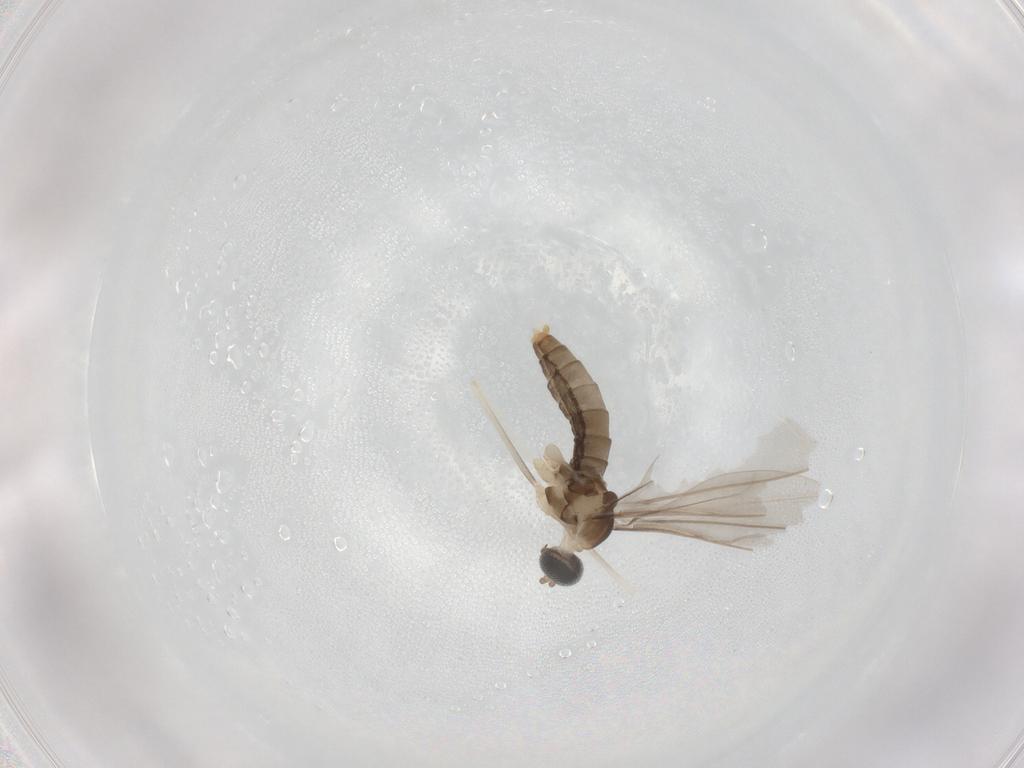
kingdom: Animalia
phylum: Arthropoda
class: Insecta
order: Diptera
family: Cecidomyiidae
